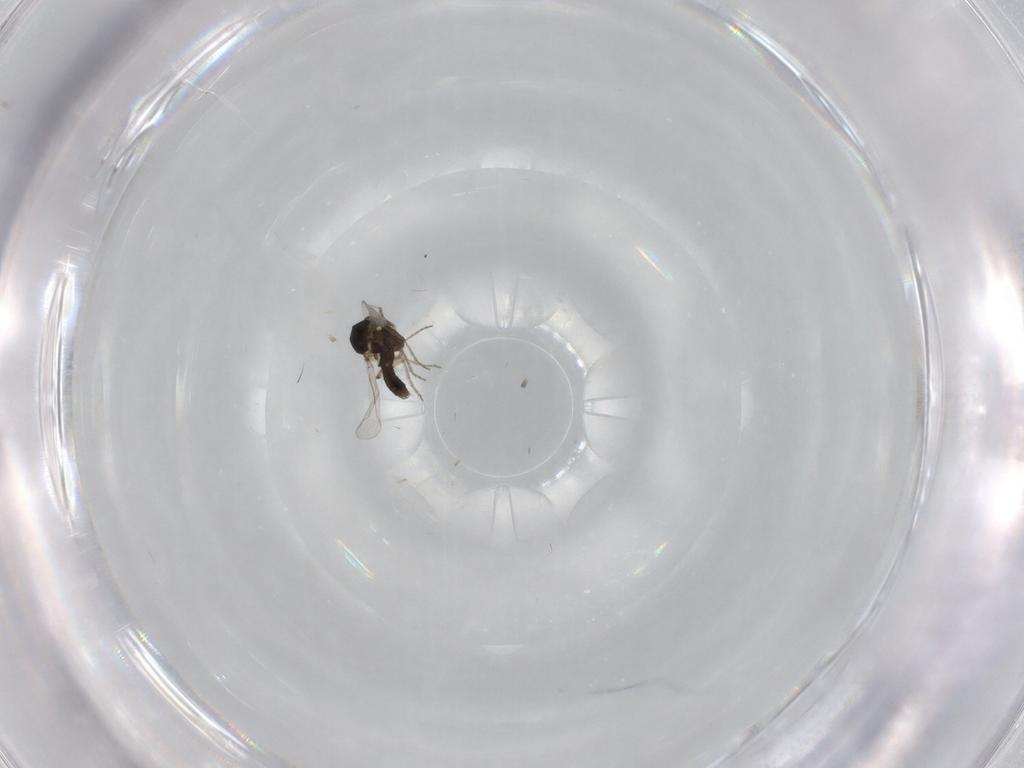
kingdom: Animalia
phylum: Arthropoda
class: Insecta
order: Diptera
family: Ceratopogonidae
